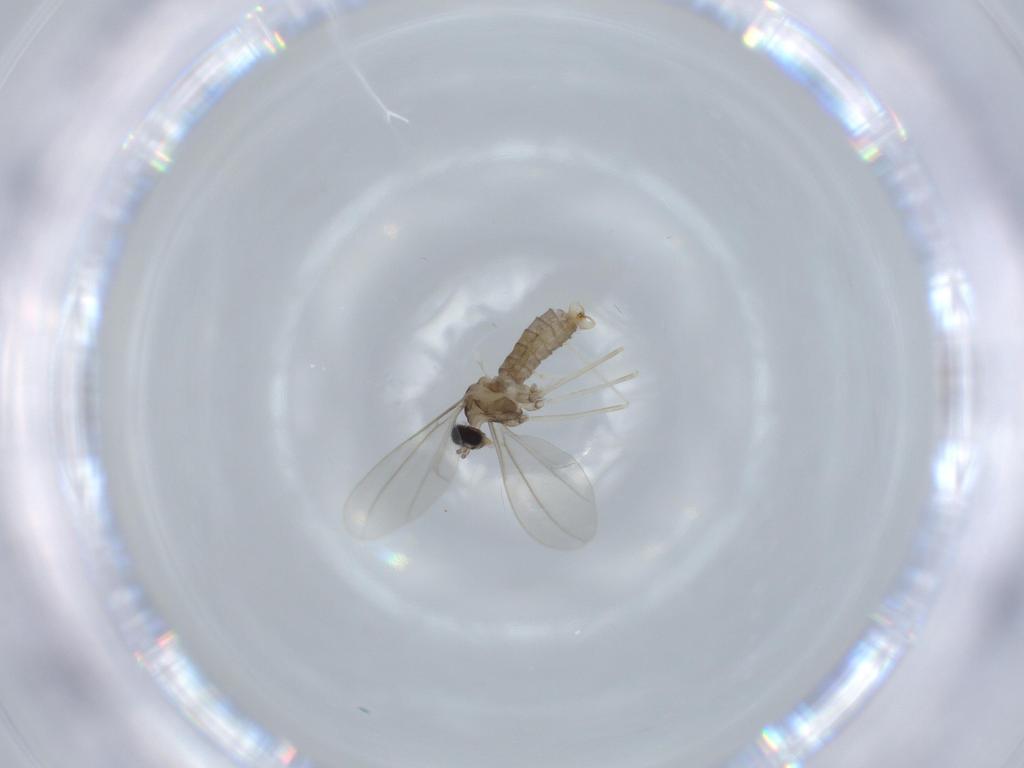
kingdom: Animalia
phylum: Arthropoda
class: Insecta
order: Diptera
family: Cecidomyiidae
